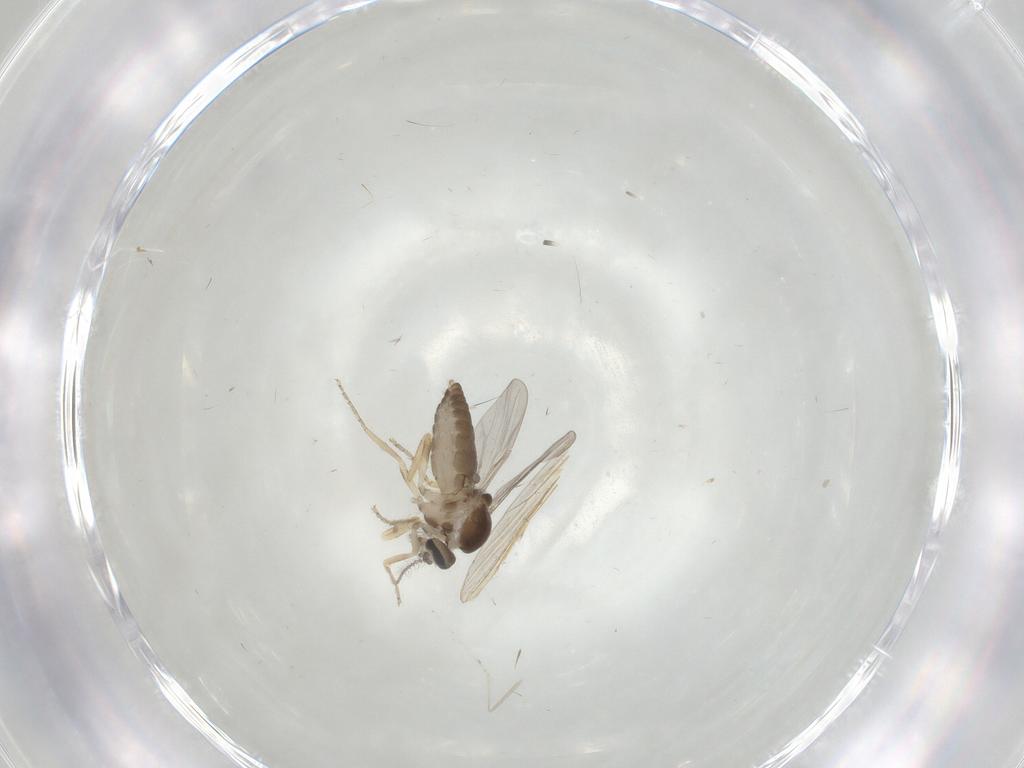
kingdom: Animalia
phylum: Arthropoda
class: Insecta
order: Diptera
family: Ceratopogonidae
